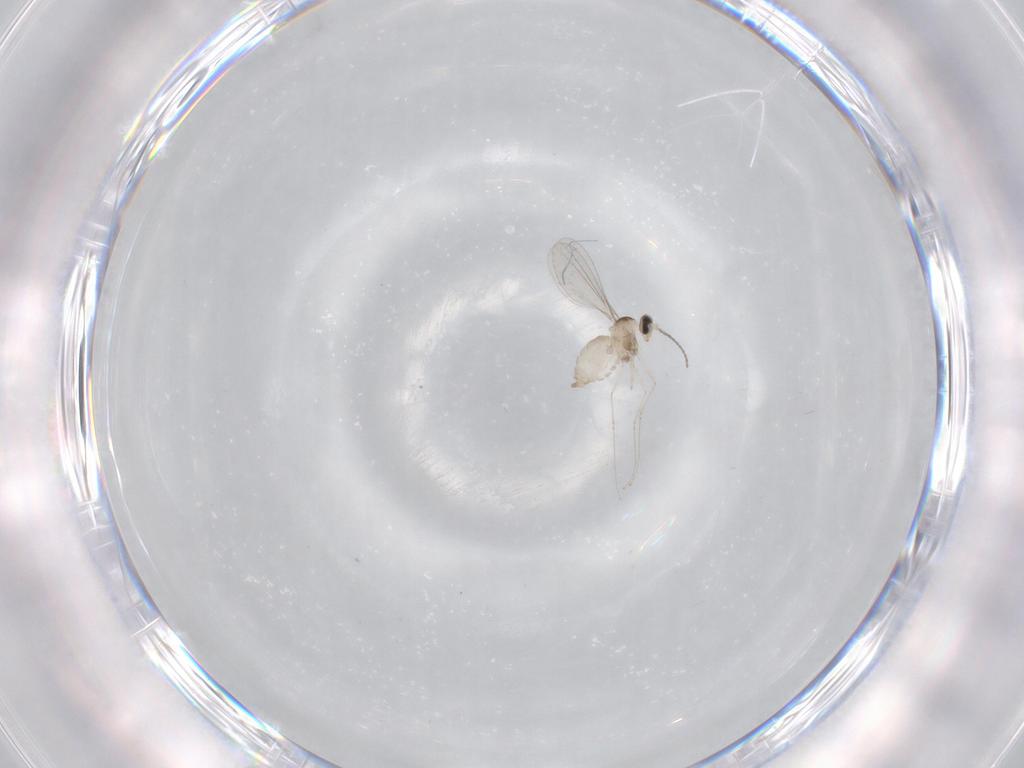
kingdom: Animalia
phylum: Arthropoda
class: Insecta
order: Diptera
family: Cecidomyiidae
